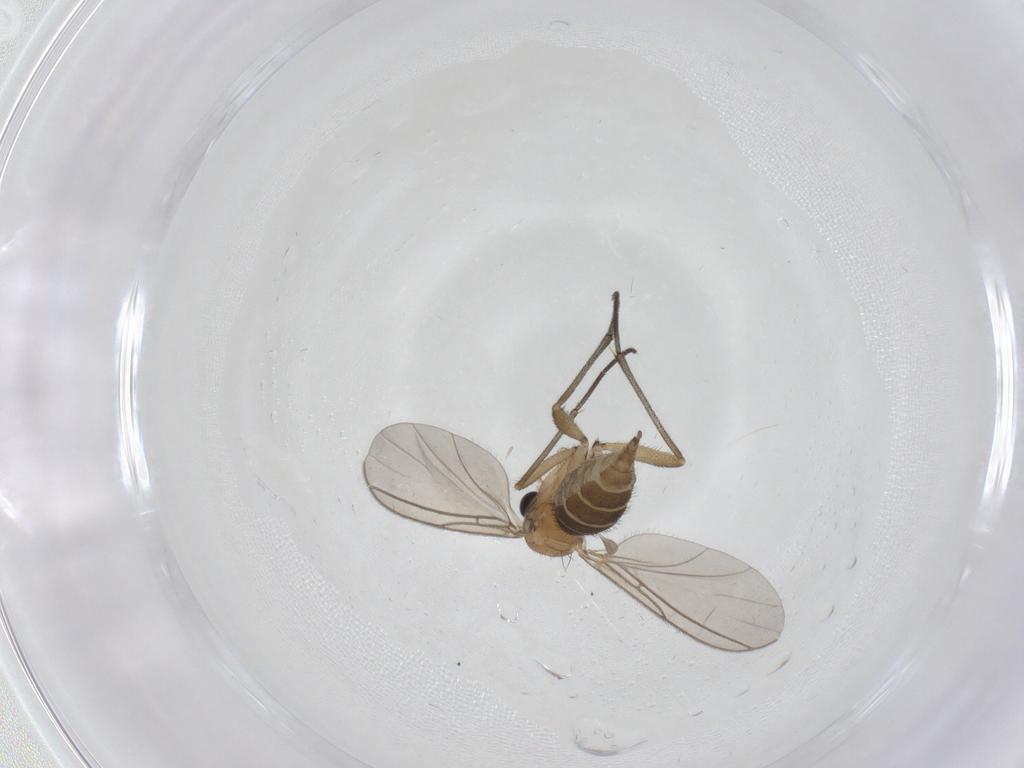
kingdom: Animalia
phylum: Arthropoda
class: Insecta
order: Diptera
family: Sciaridae
